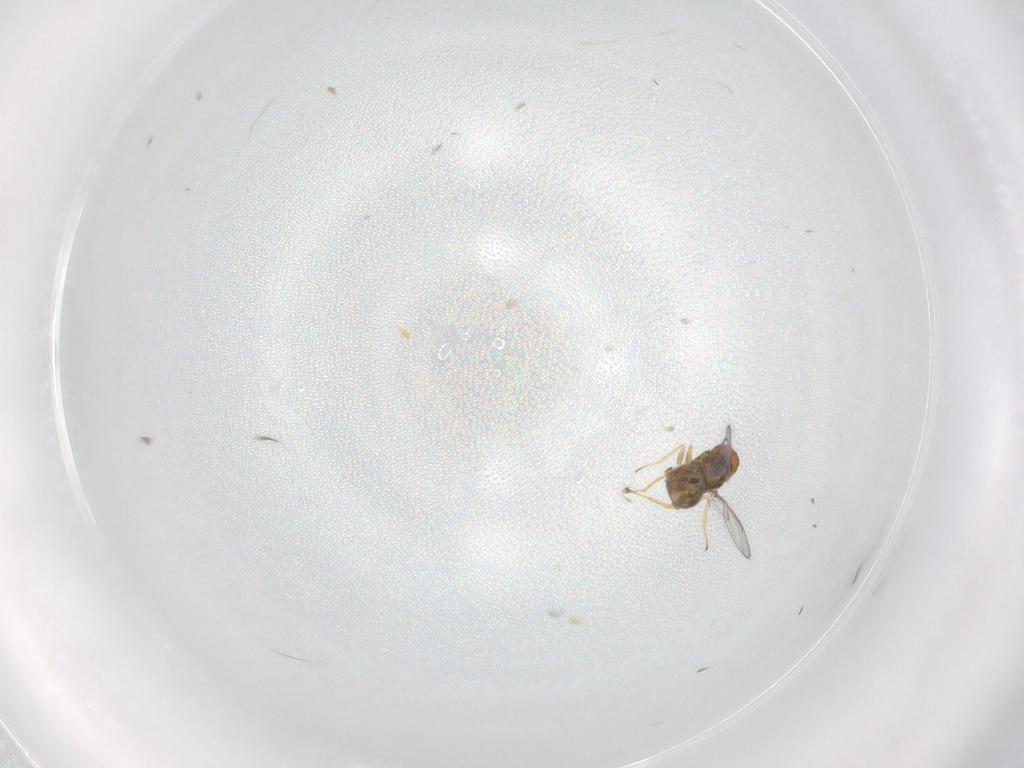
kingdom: Animalia
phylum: Arthropoda
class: Insecta
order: Hymenoptera
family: Eulophidae
